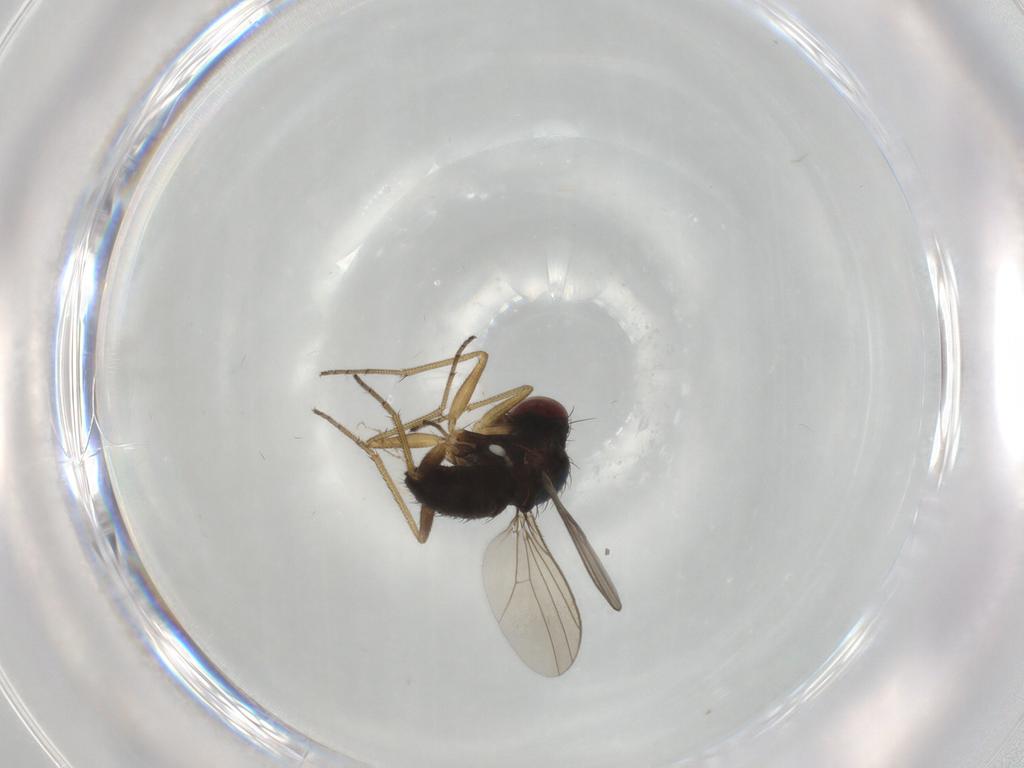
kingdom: Animalia
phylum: Arthropoda
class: Insecta
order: Diptera
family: Dolichopodidae
